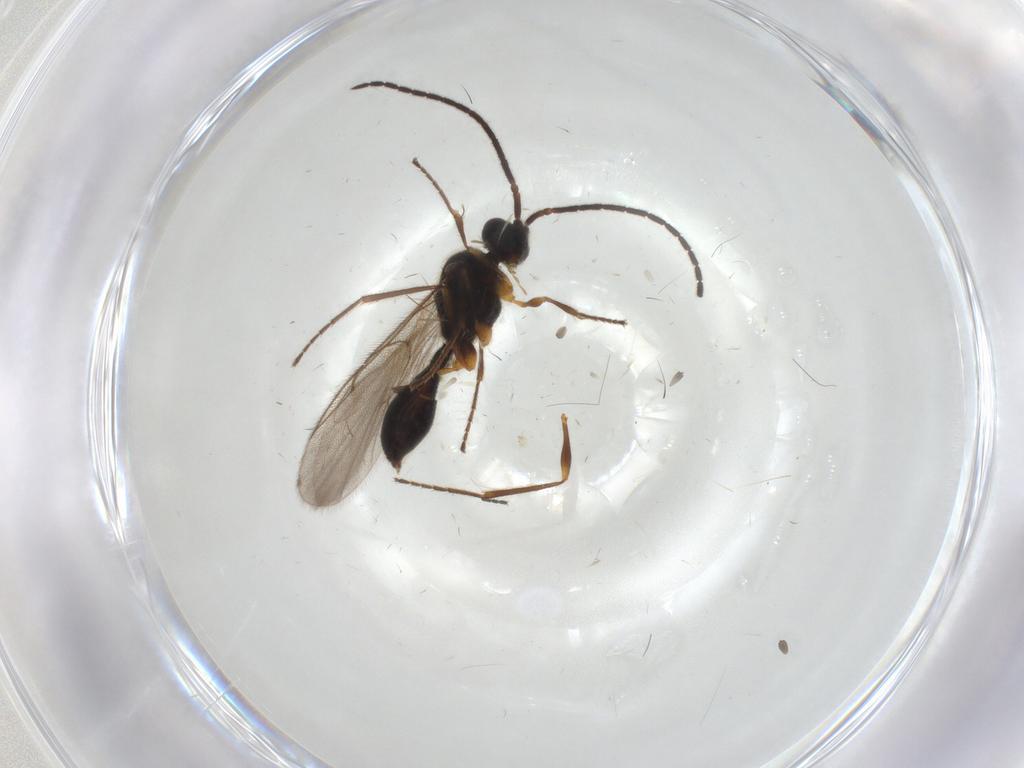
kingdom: Animalia
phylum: Arthropoda
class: Insecta
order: Hymenoptera
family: Diapriidae
